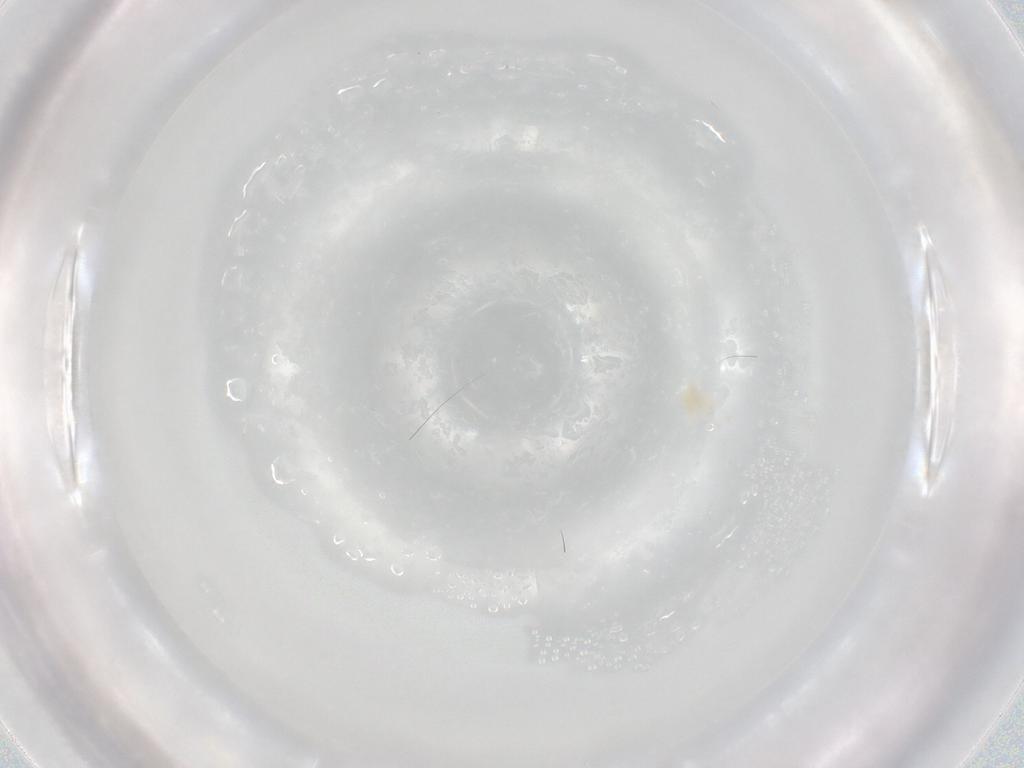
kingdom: Animalia
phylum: Arthropoda
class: Arachnida
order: Trombidiformes
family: Eupodidae
